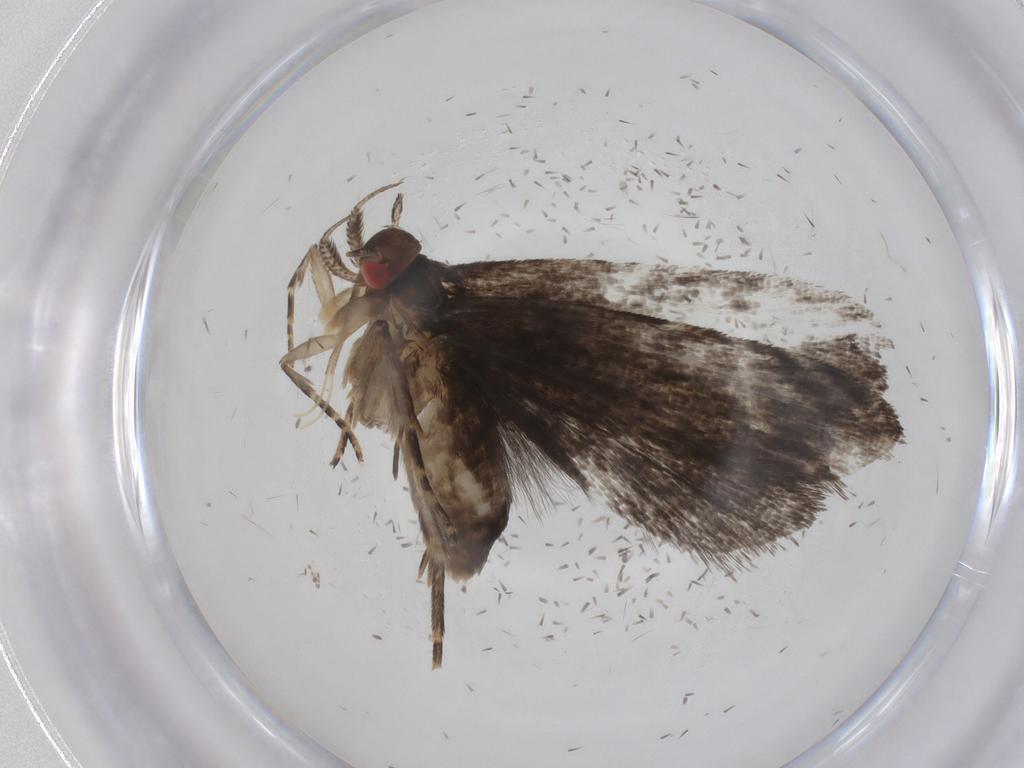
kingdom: Animalia
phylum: Arthropoda
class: Insecta
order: Lepidoptera
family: Gelechiidae
